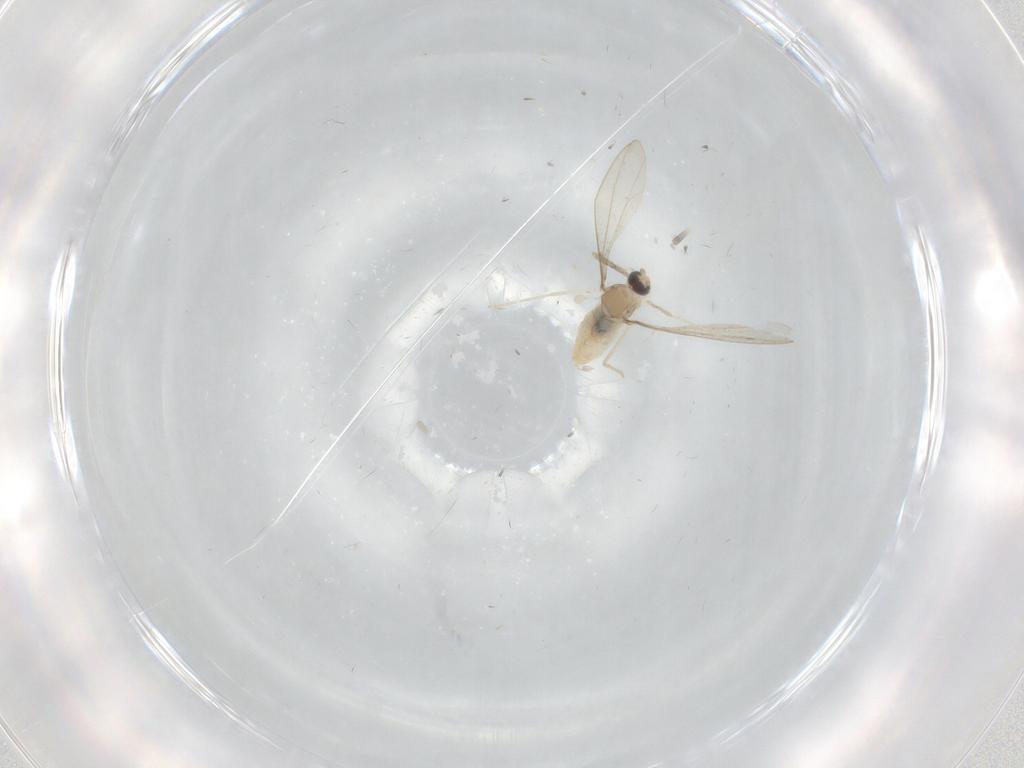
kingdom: Animalia
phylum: Arthropoda
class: Insecta
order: Diptera
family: Cecidomyiidae
